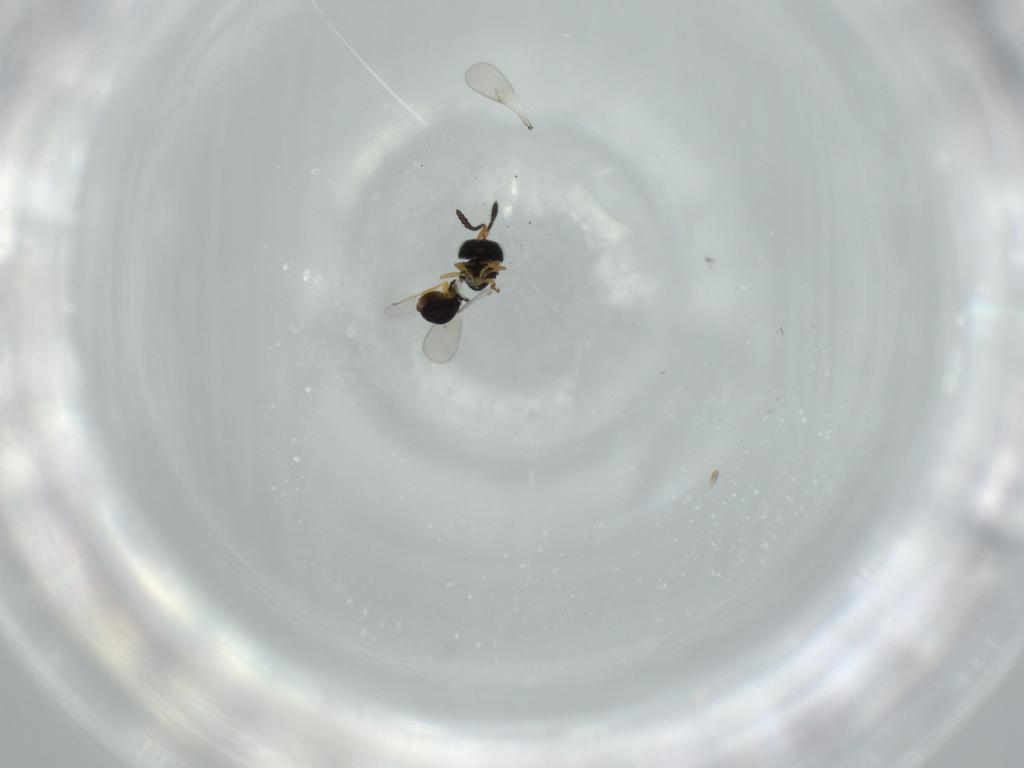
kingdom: Animalia
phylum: Arthropoda
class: Insecta
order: Hymenoptera
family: Scelionidae
